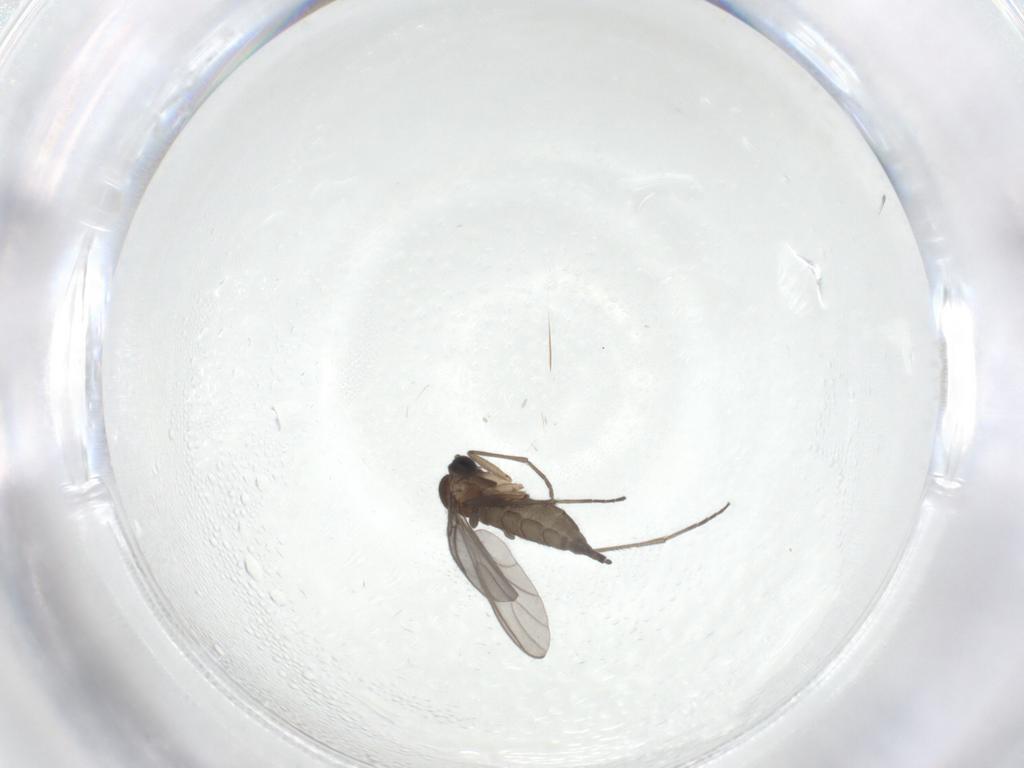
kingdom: Animalia
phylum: Arthropoda
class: Insecta
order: Diptera
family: Sciaridae
